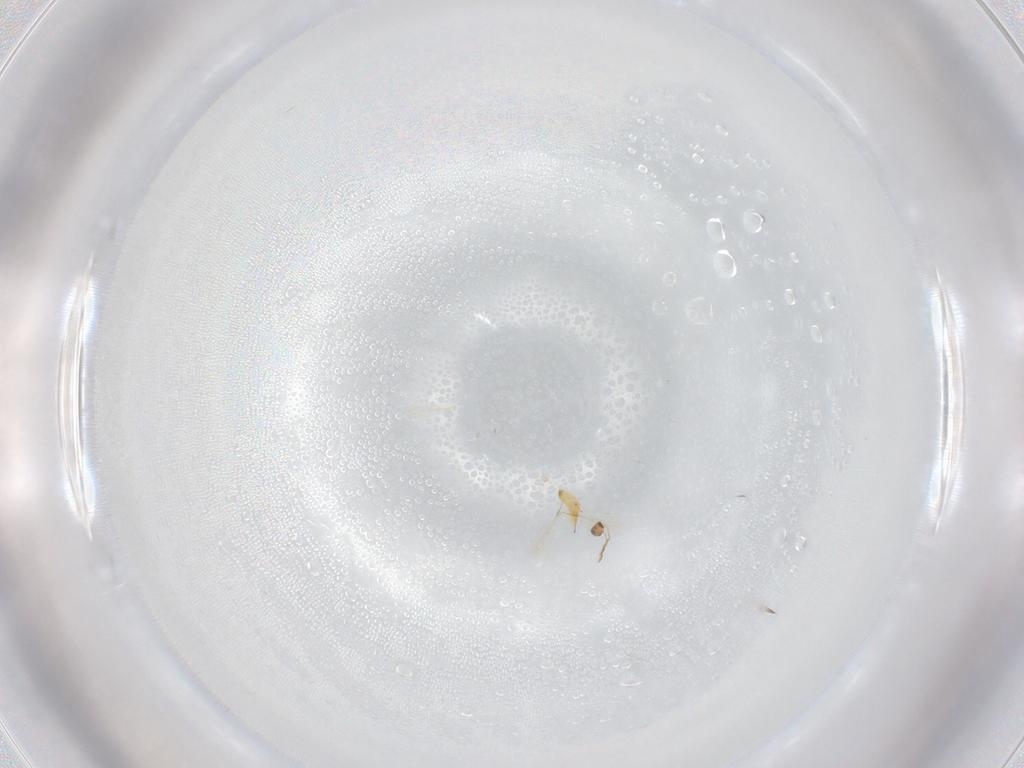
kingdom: Animalia
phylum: Arthropoda
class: Insecta
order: Hymenoptera
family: Mymaridae
